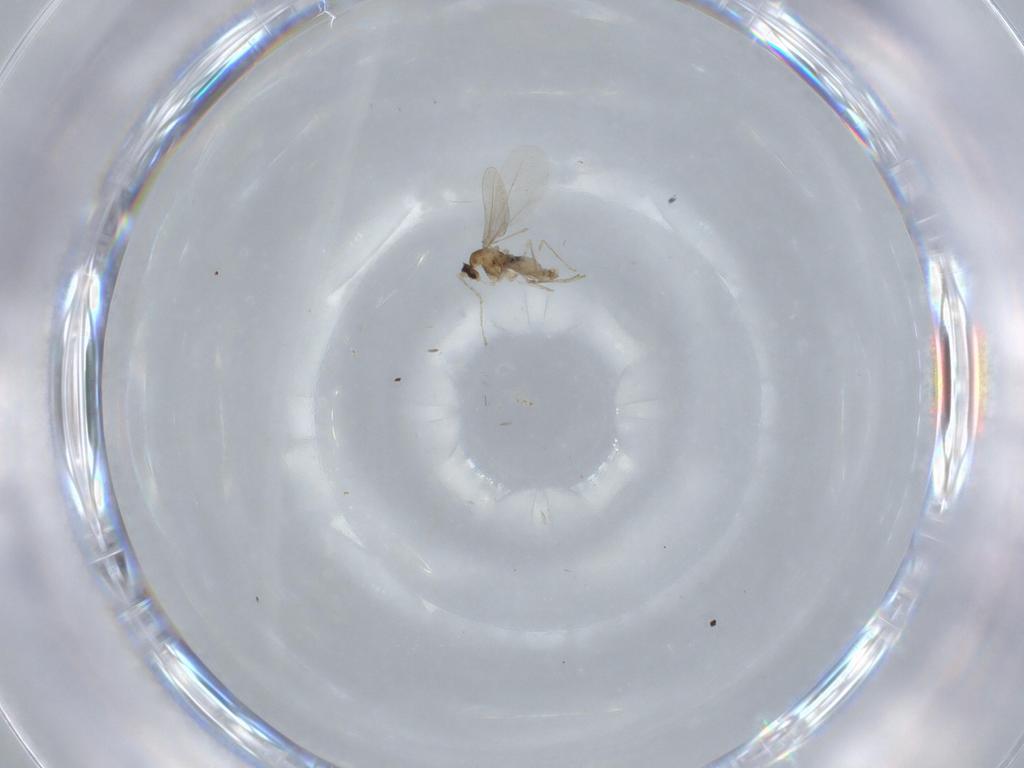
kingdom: Animalia
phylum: Arthropoda
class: Insecta
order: Diptera
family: Cecidomyiidae
